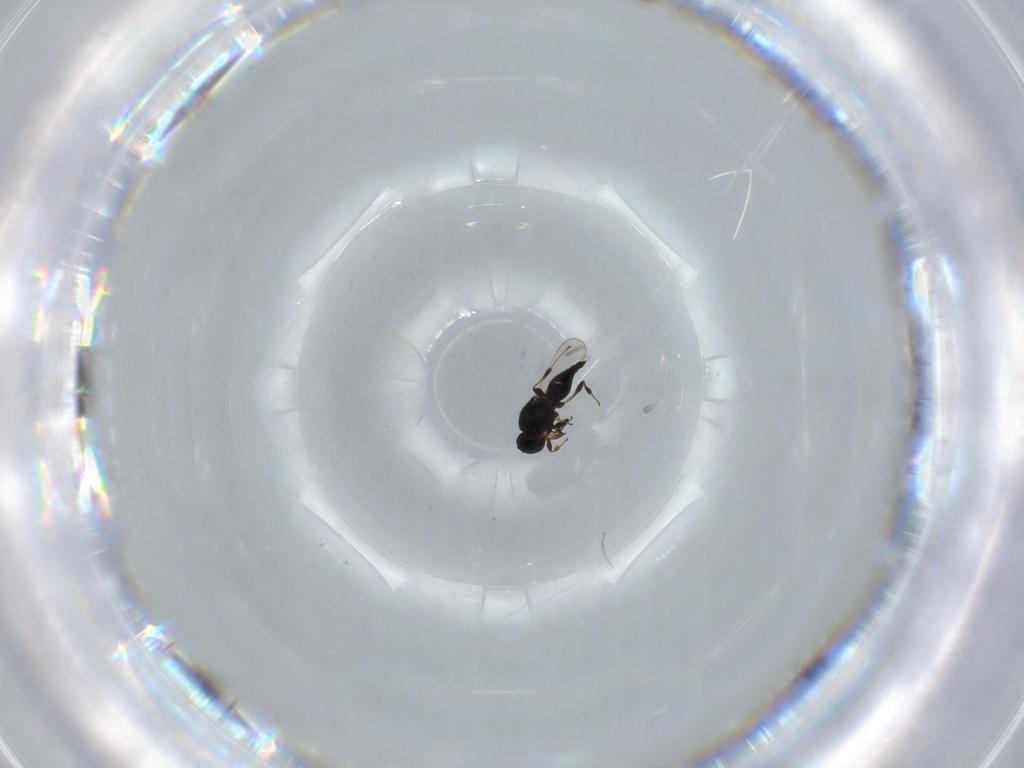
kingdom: Animalia
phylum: Arthropoda
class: Insecta
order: Hymenoptera
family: Platygastridae
